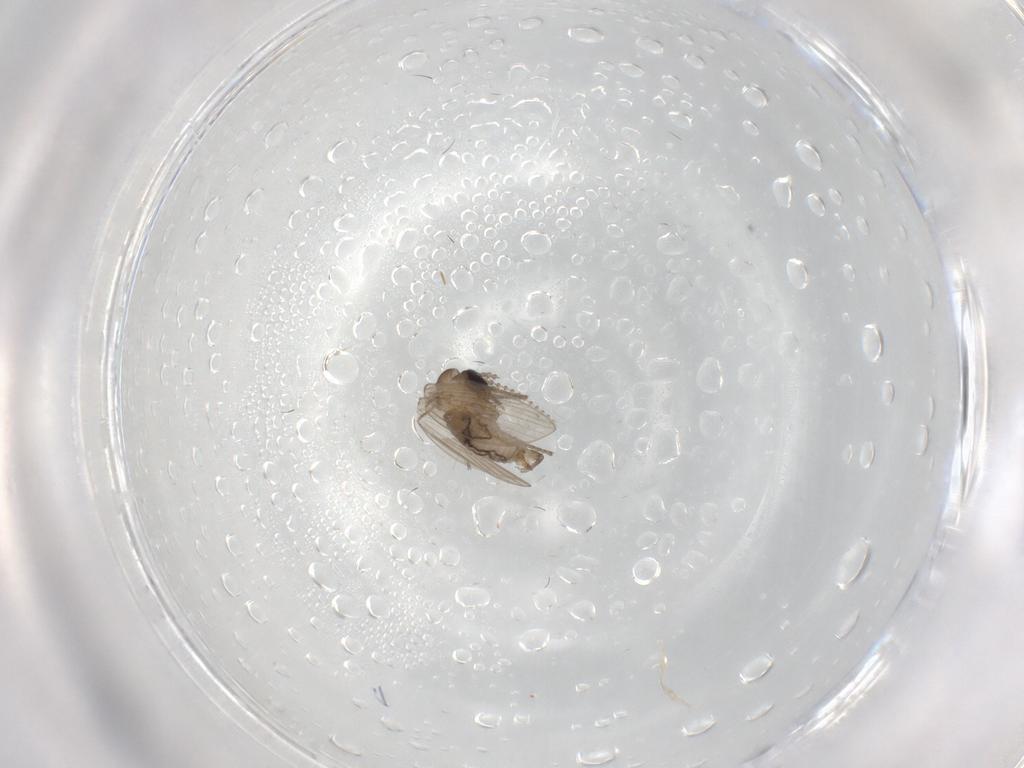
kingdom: Animalia
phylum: Arthropoda
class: Insecta
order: Diptera
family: Psychodidae
